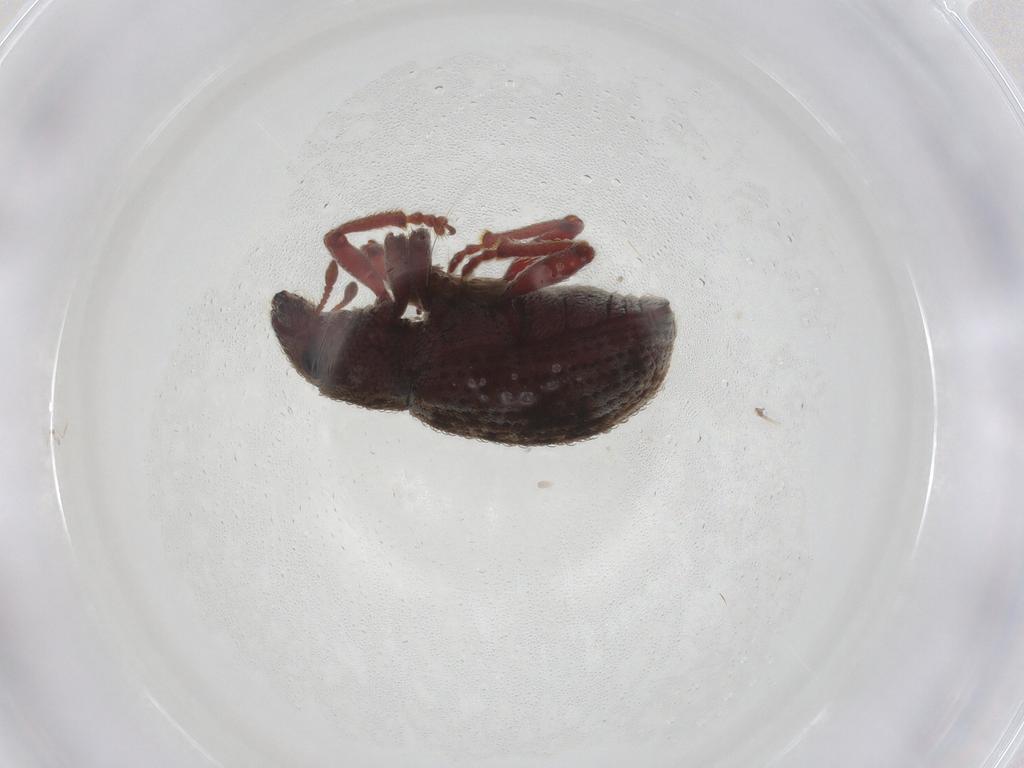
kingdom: Animalia
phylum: Arthropoda
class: Insecta
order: Coleoptera
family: Curculionidae
